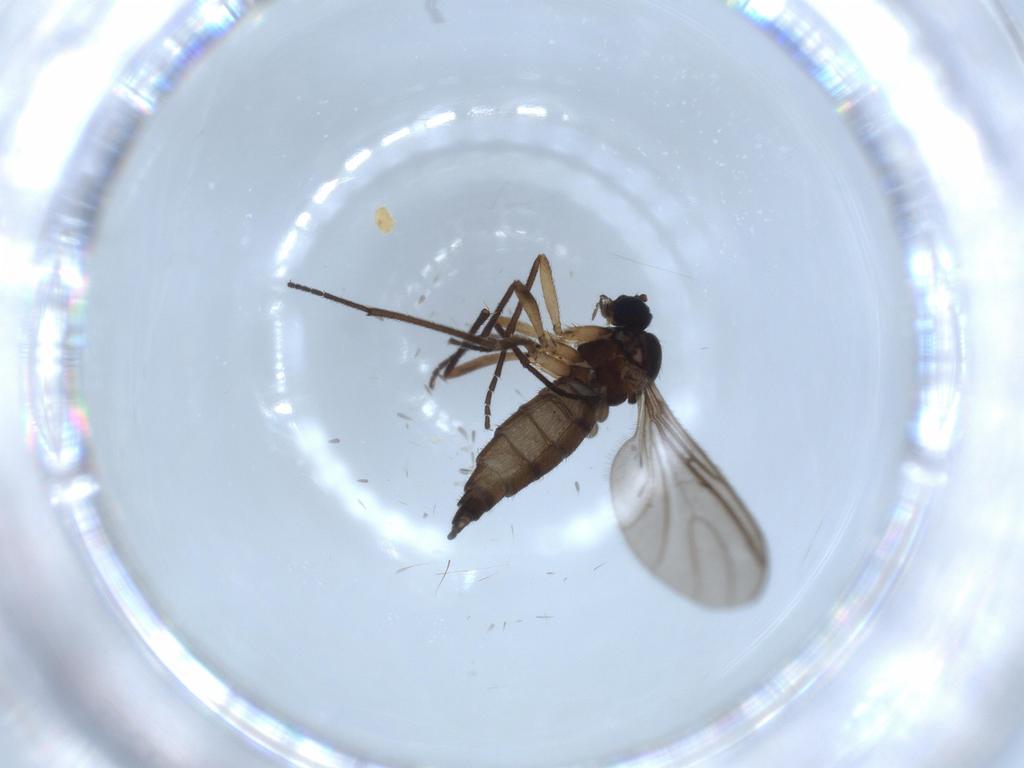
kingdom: Animalia
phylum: Arthropoda
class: Insecta
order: Diptera
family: Sciaridae
